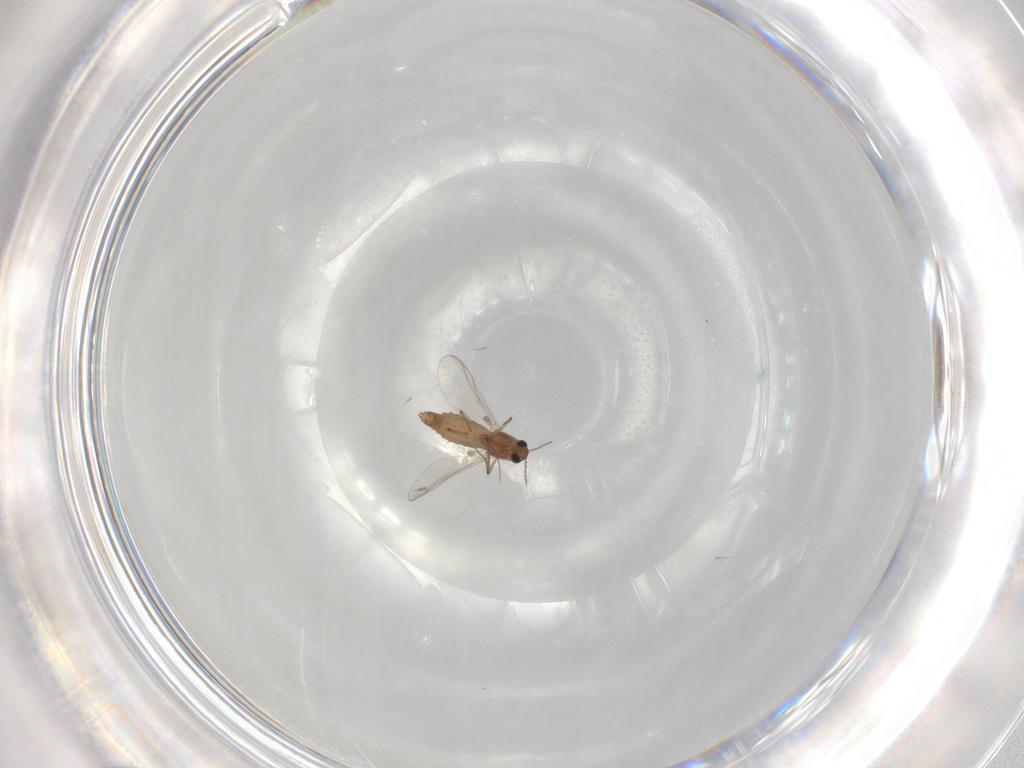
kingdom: Animalia
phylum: Arthropoda
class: Insecta
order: Diptera
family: Chironomidae
